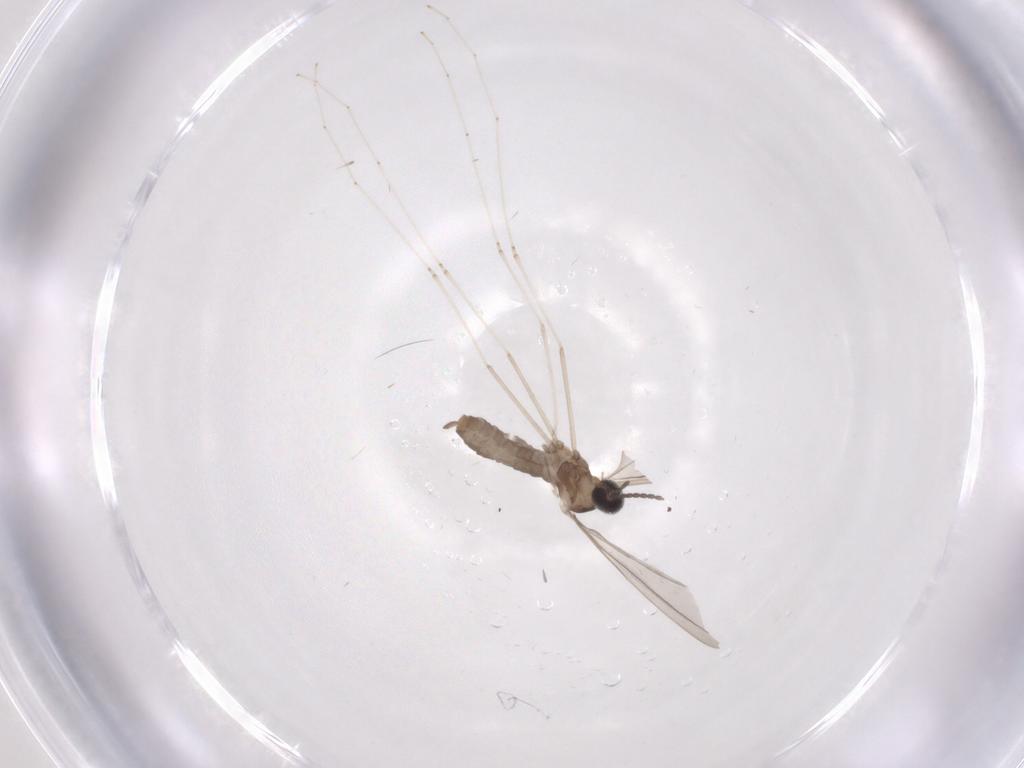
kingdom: Animalia
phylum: Arthropoda
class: Insecta
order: Diptera
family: Cecidomyiidae
